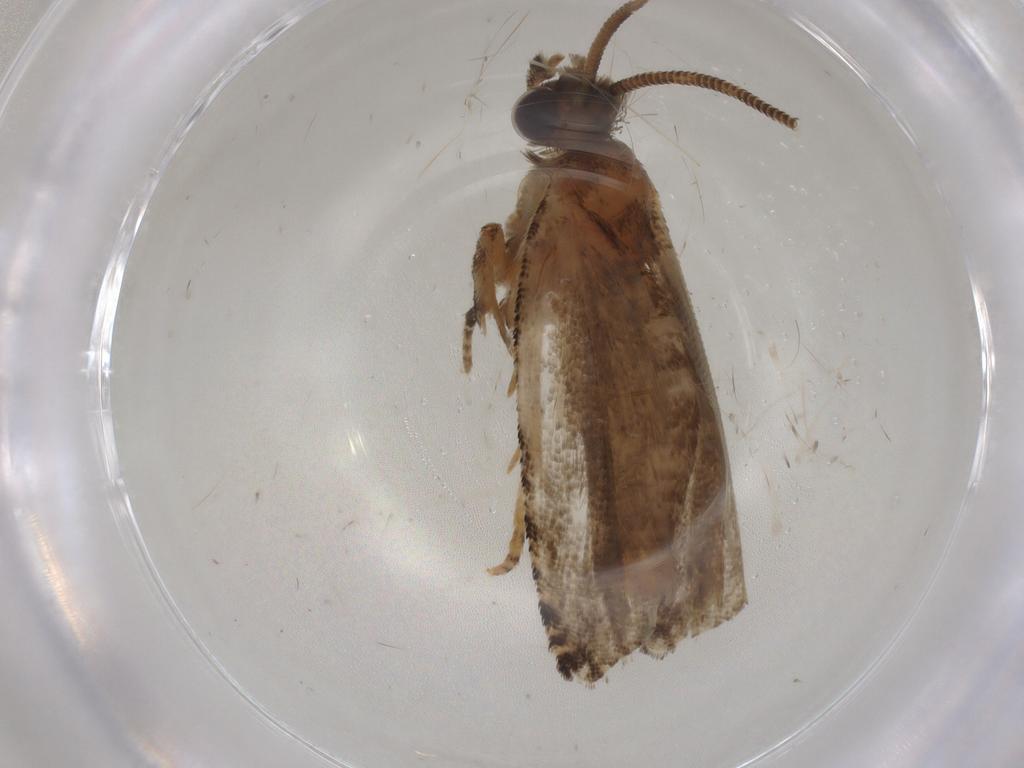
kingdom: Animalia
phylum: Arthropoda
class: Insecta
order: Lepidoptera
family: Tortricidae
